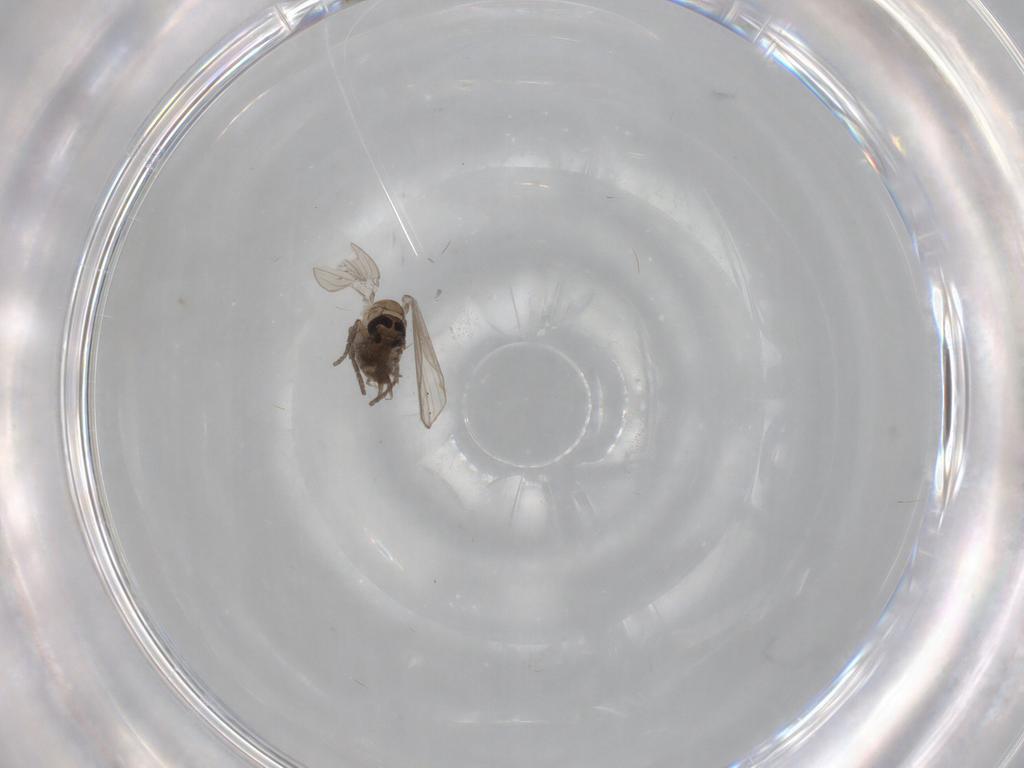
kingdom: Animalia
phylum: Arthropoda
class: Insecta
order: Diptera
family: Psychodidae
